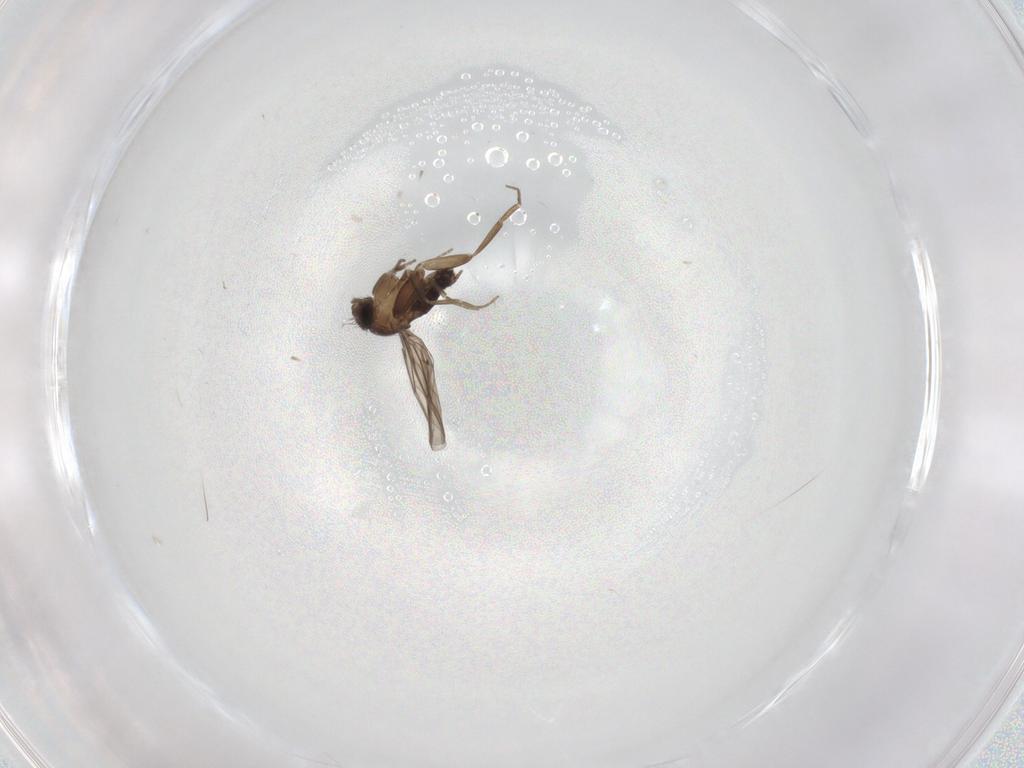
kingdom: Animalia
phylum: Arthropoda
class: Insecta
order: Diptera
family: Phoridae
